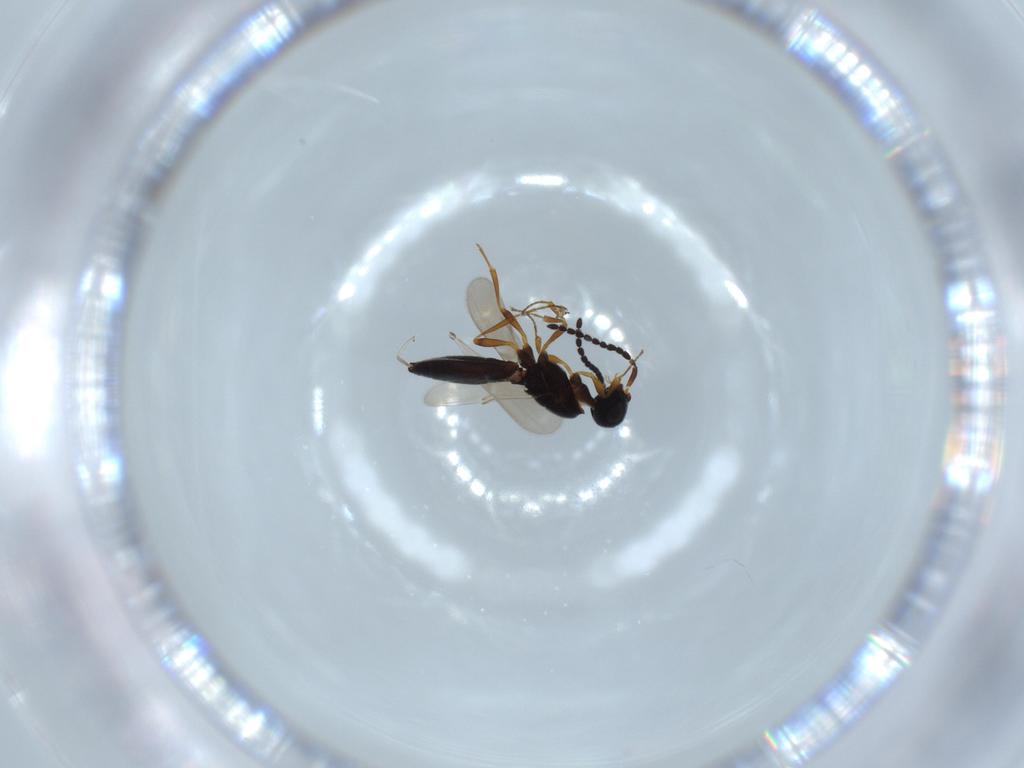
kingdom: Animalia
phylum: Arthropoda
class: Insecta
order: Hymenoptera
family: Scelionidae
